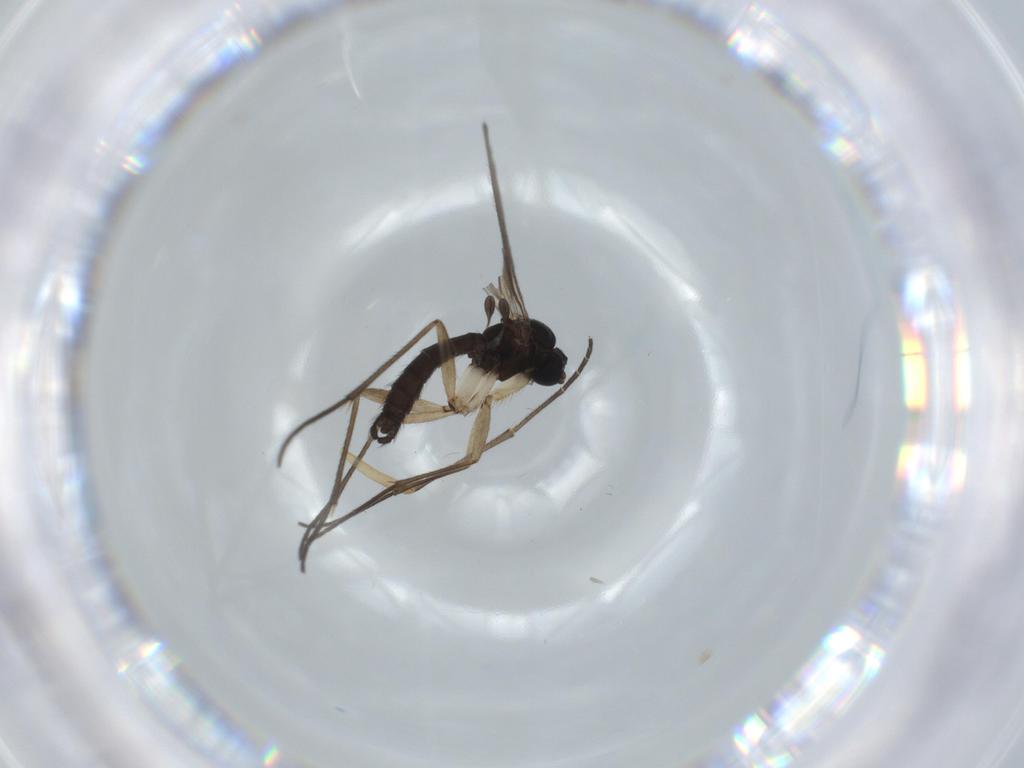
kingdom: Animalia
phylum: Arthropoda
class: Insecta
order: Diptera
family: Sciaridae
